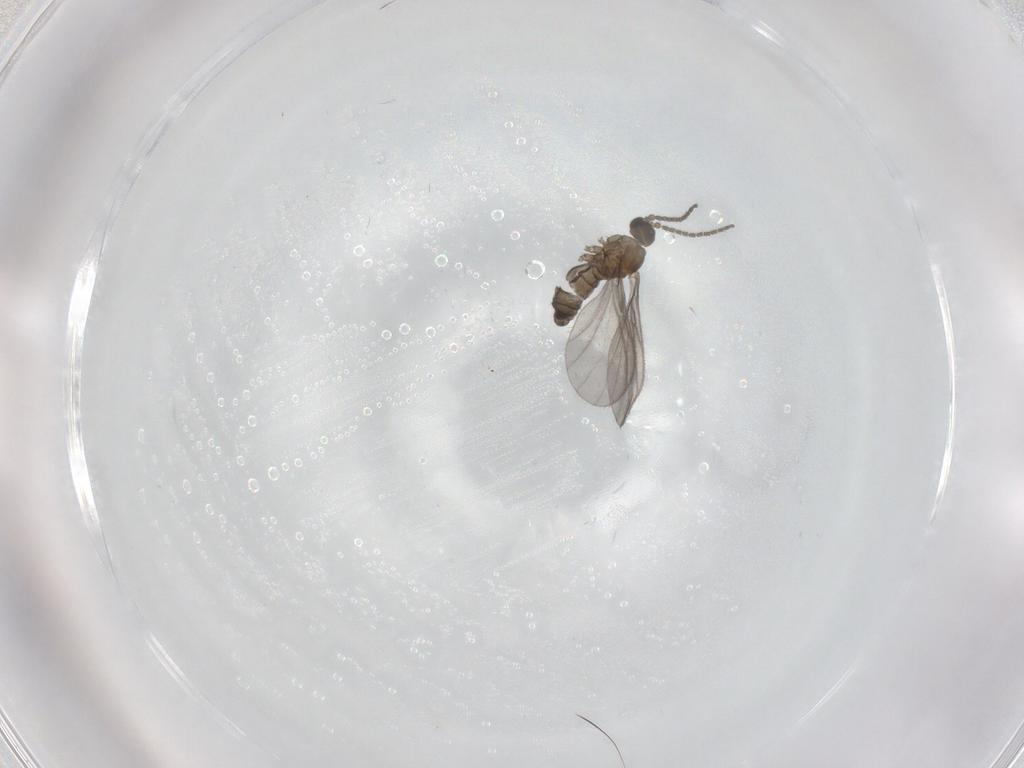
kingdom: Animalia
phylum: Arthropoda
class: Insecta
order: Diptera
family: Sciaridae
